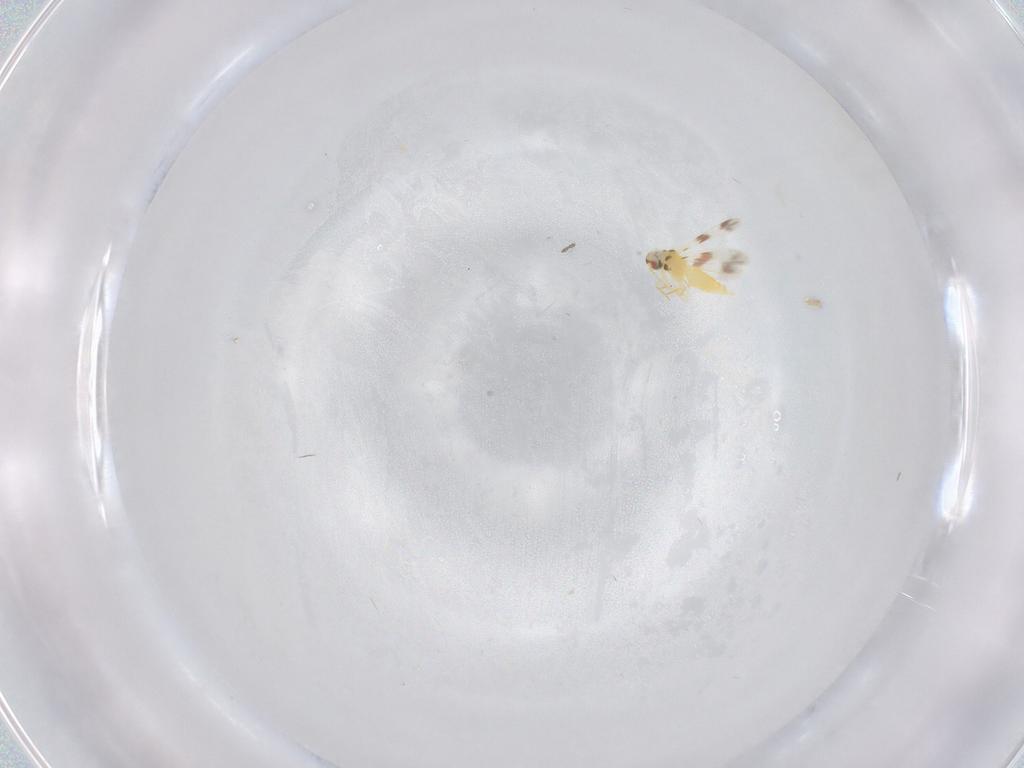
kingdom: Animalia
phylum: Arthropoda
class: Insecta
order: Hemiptera
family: Aleyrodidae
